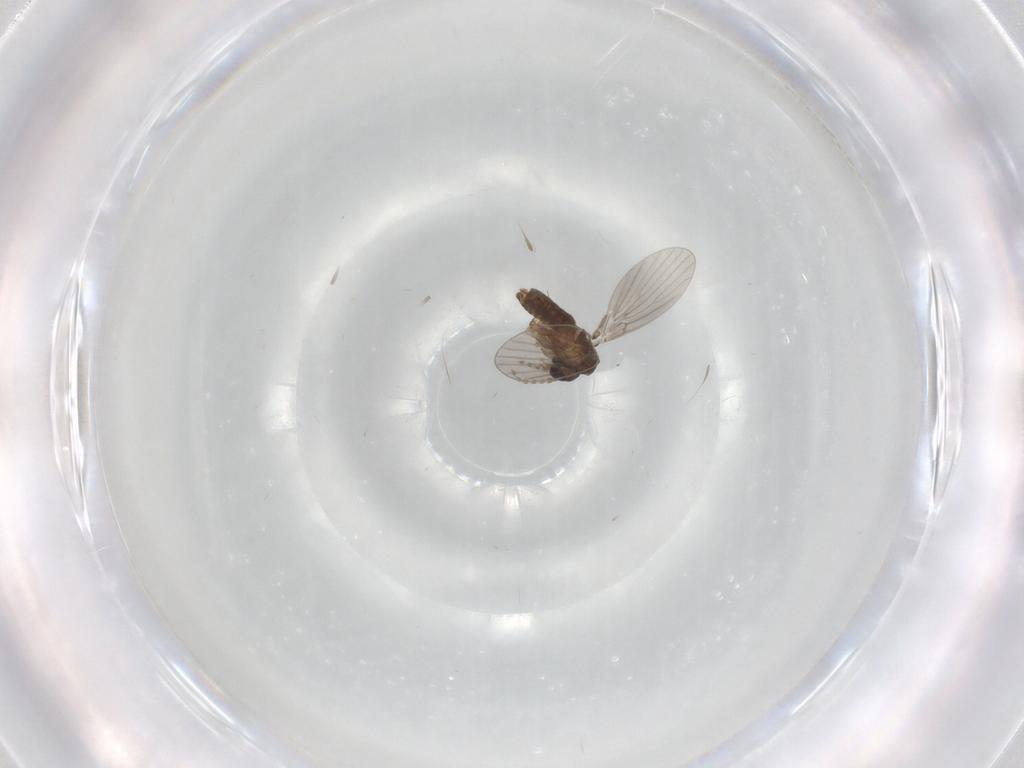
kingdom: Animalia
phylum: Arthropoda
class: Insecta
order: Diptera
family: Psychodidae
